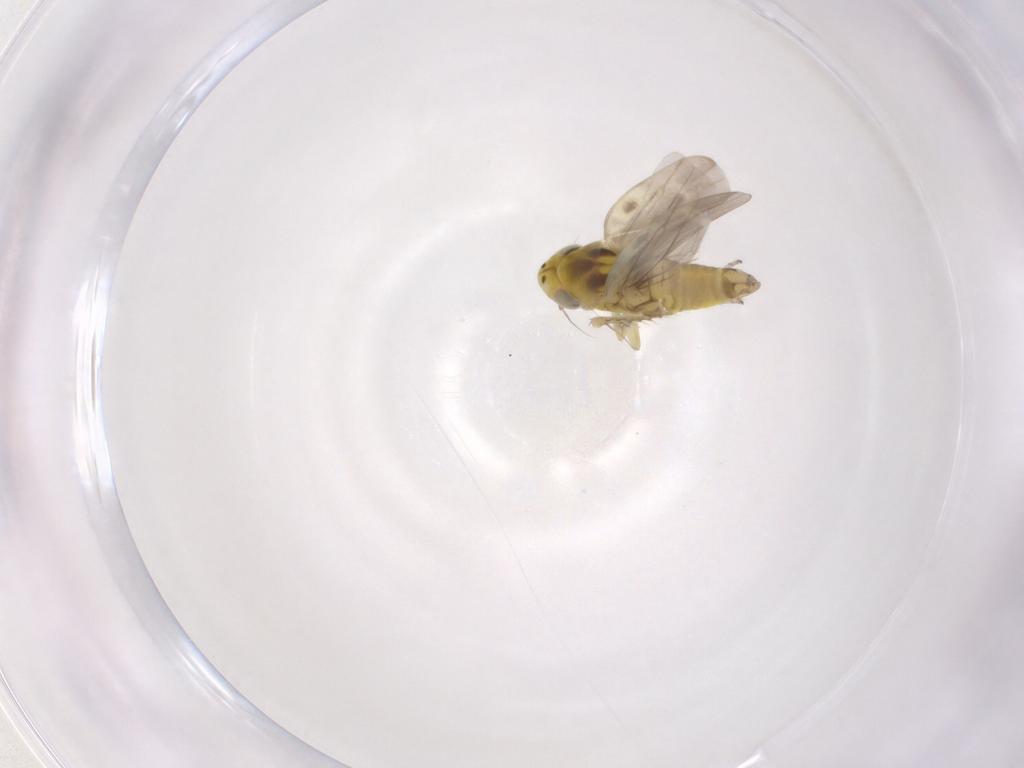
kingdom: Animalia
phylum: Arthropoda
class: Insecta
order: Hemiptera
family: Cicadellidae
